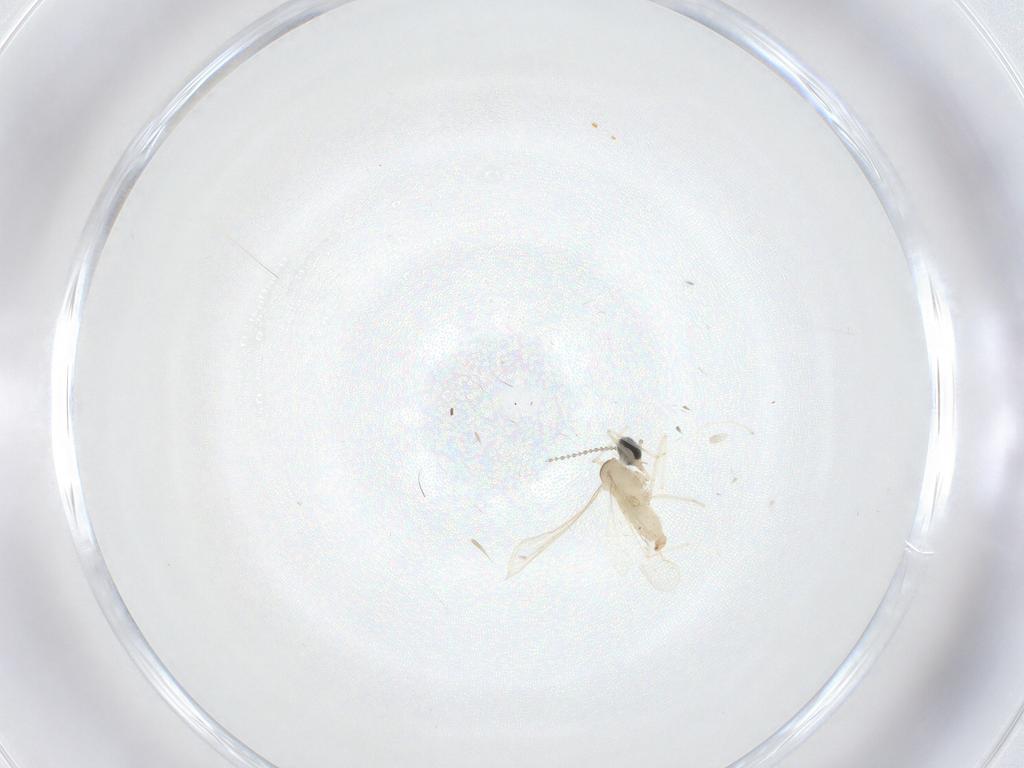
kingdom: Animalia
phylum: Arthropoda
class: Insecta
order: Diptera
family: Cecidomyiidae
